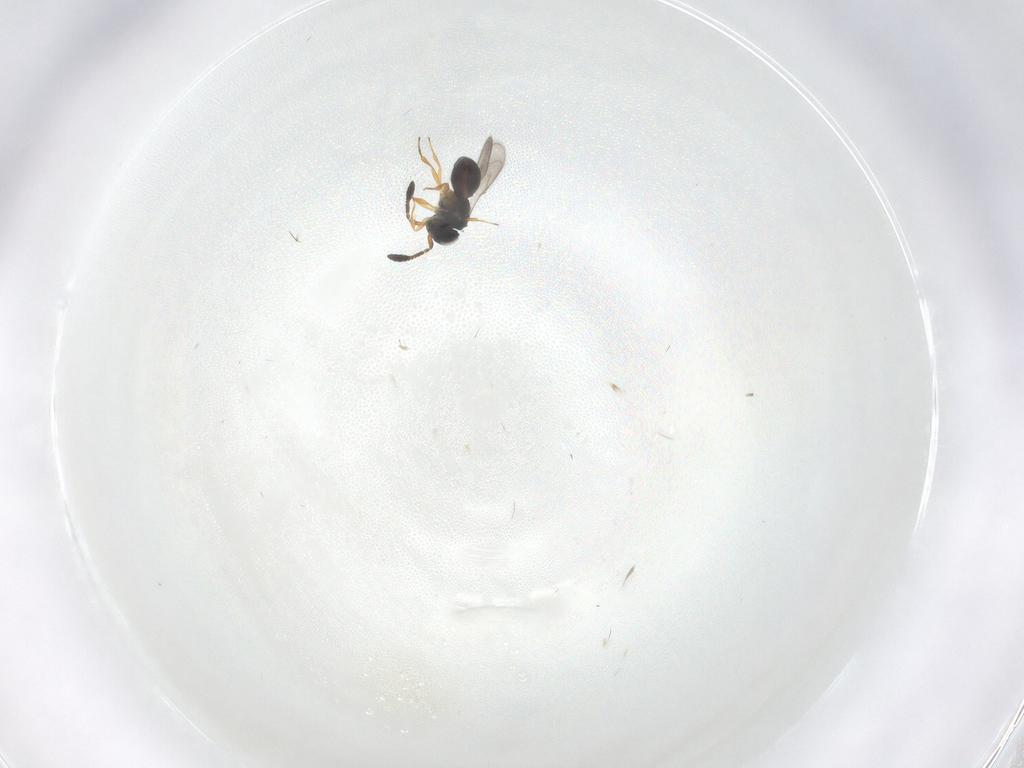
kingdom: Animalia
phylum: Arthropoda
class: Insecta
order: Hymenoptera
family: Scelionidae
